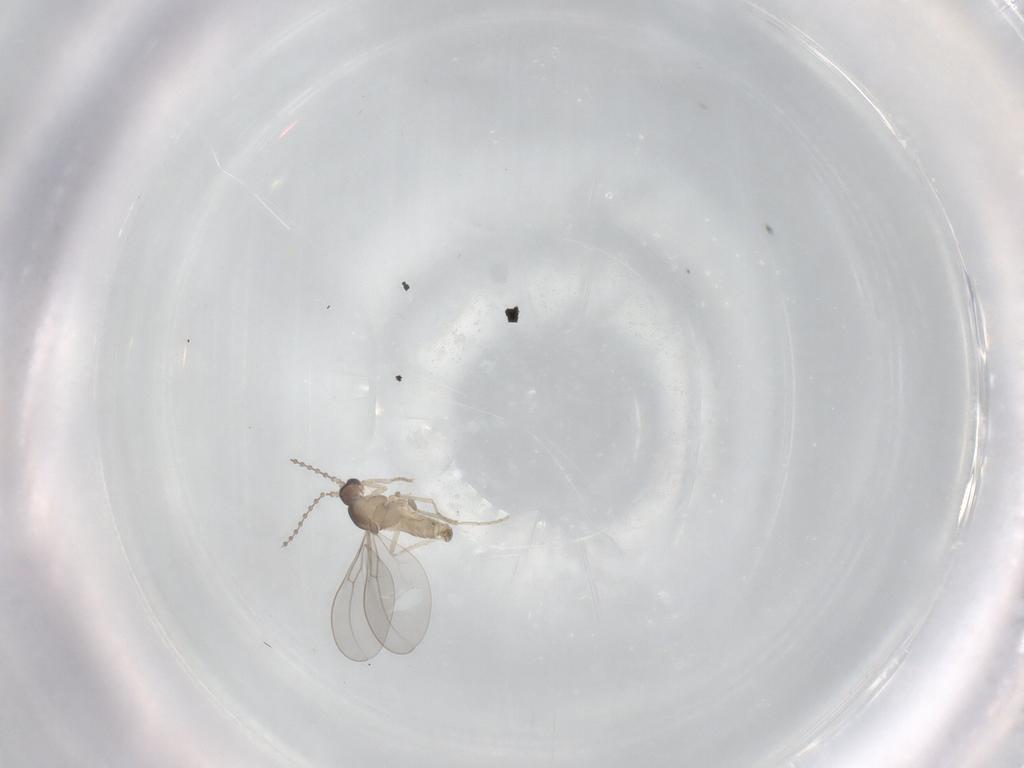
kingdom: Animalia
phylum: Arthropoda
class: Insecta
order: Diptera
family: Cecidomyiidae
